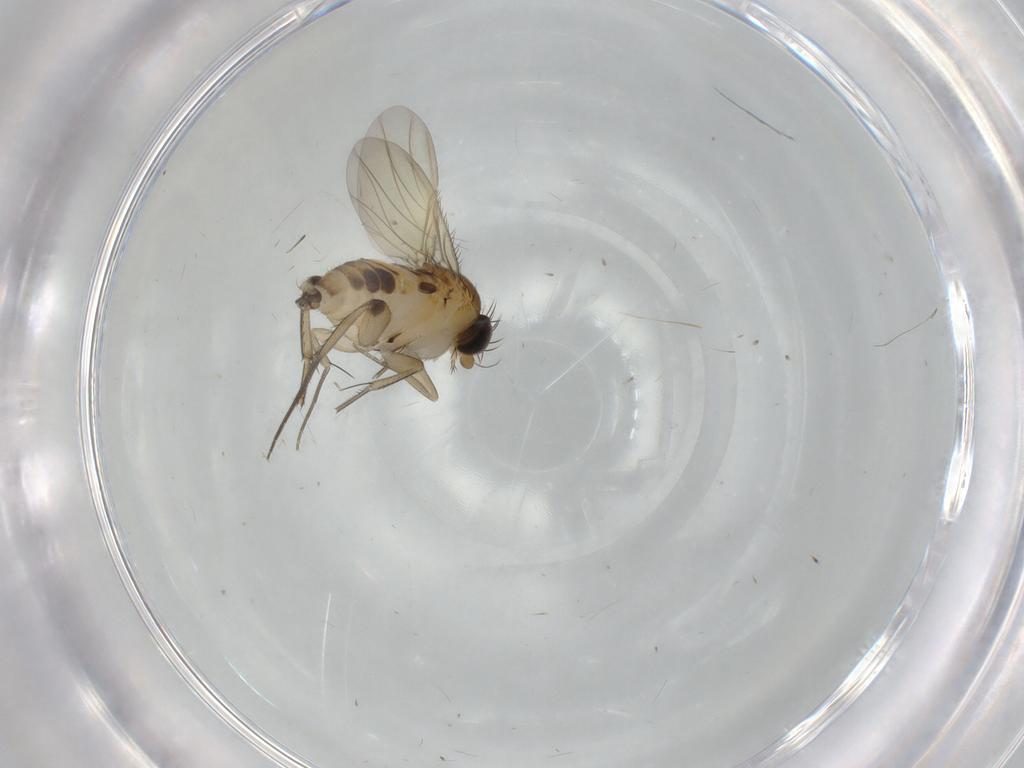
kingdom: Animalia
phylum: Arthropoda
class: Insecta
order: Diptera
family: Phoridae
